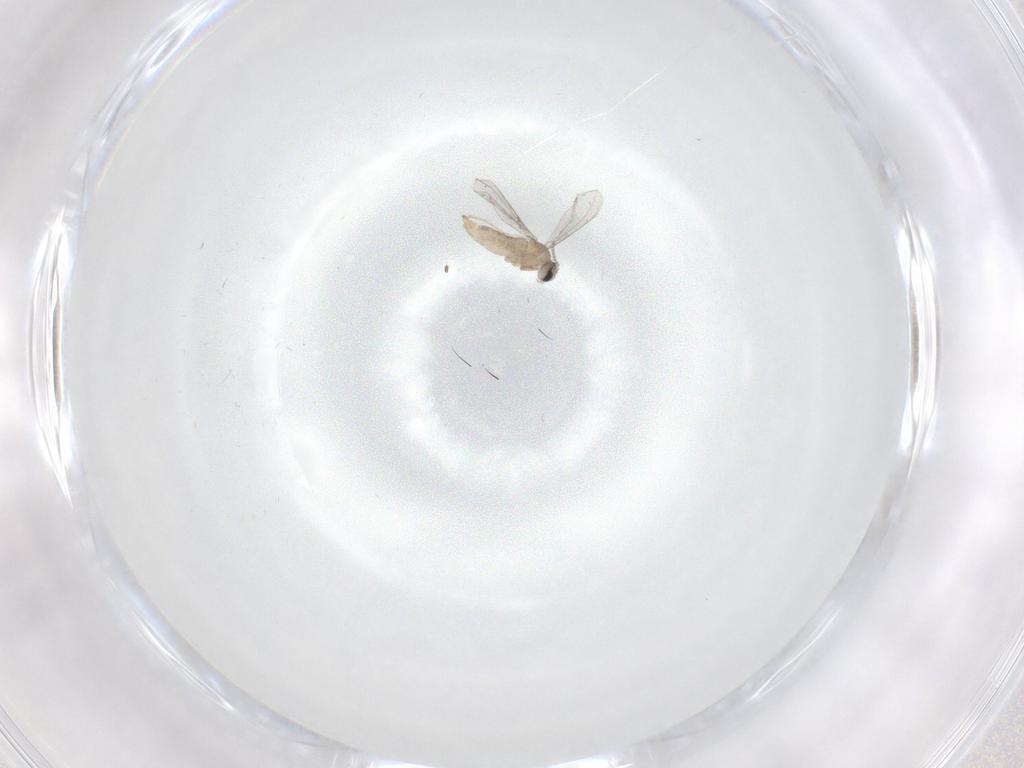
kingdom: Animalia
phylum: Arthropoda
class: Insecta
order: Diptera
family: Cecidomyiidae
